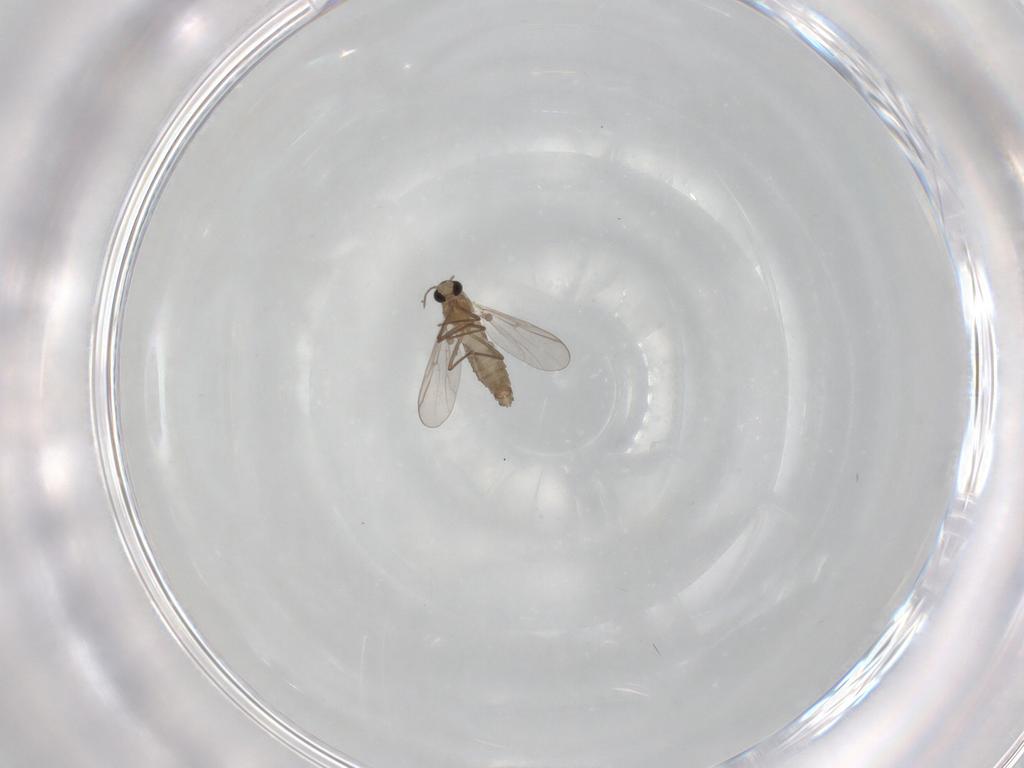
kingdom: Animalia
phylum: Arthropoda
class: Insecta
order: Diptera
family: Chironomidae
